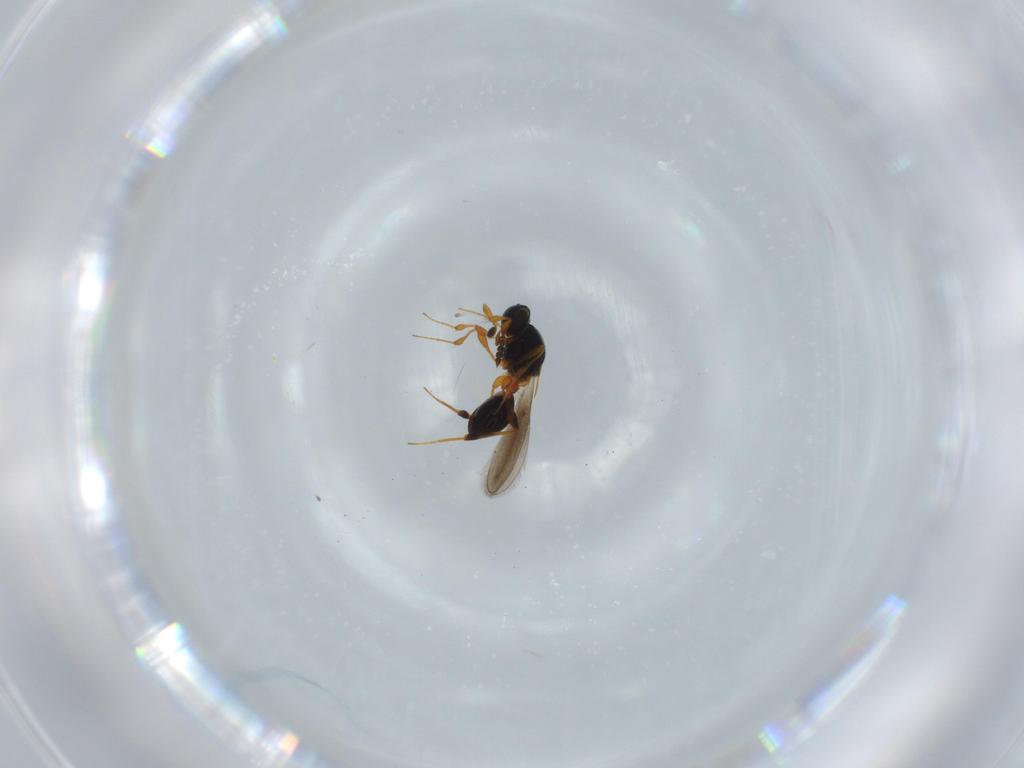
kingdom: Animalia
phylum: Arthropoda
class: Insecta
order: Hymenoptera
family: Platygastridae
